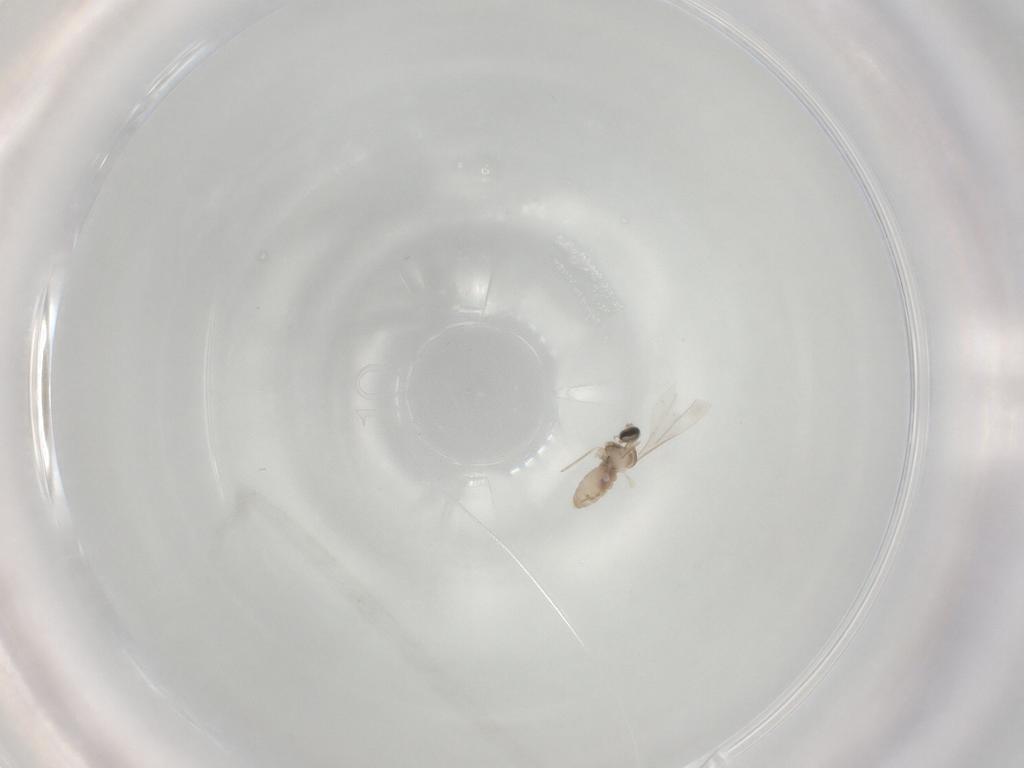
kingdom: Animalia
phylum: Arthropoda
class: Insecta
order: Diptera
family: Cecidomyiidae
